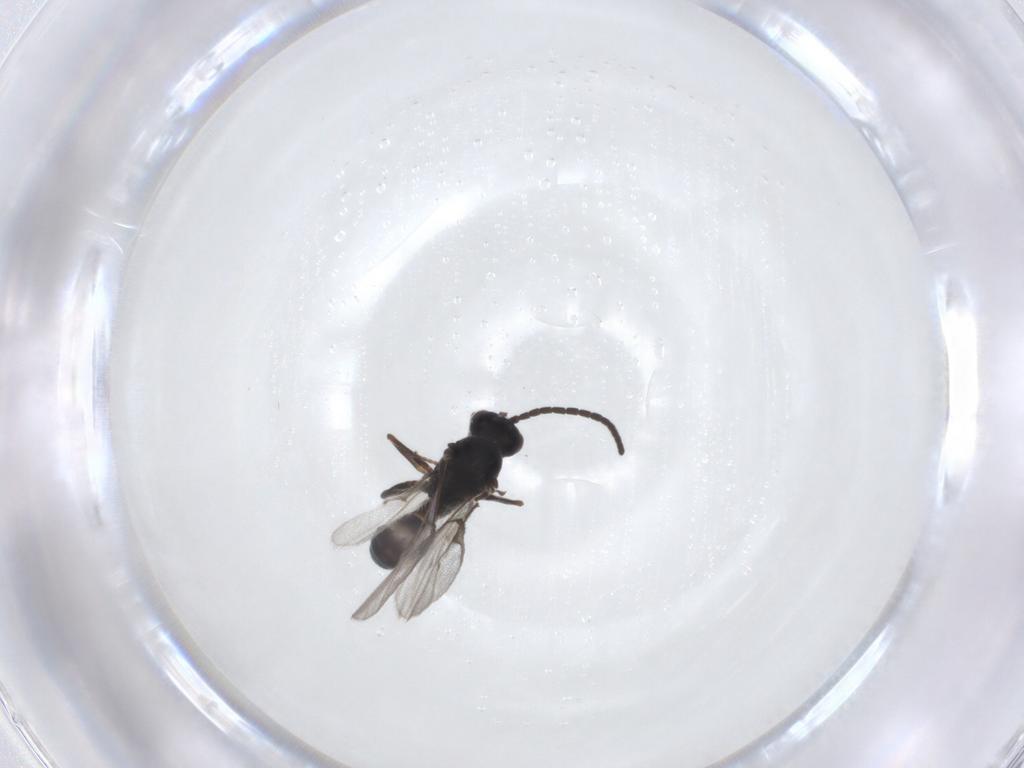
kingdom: Animalia
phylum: Arthropoda
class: Insecta
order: Hymenoptera
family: Braconidae
